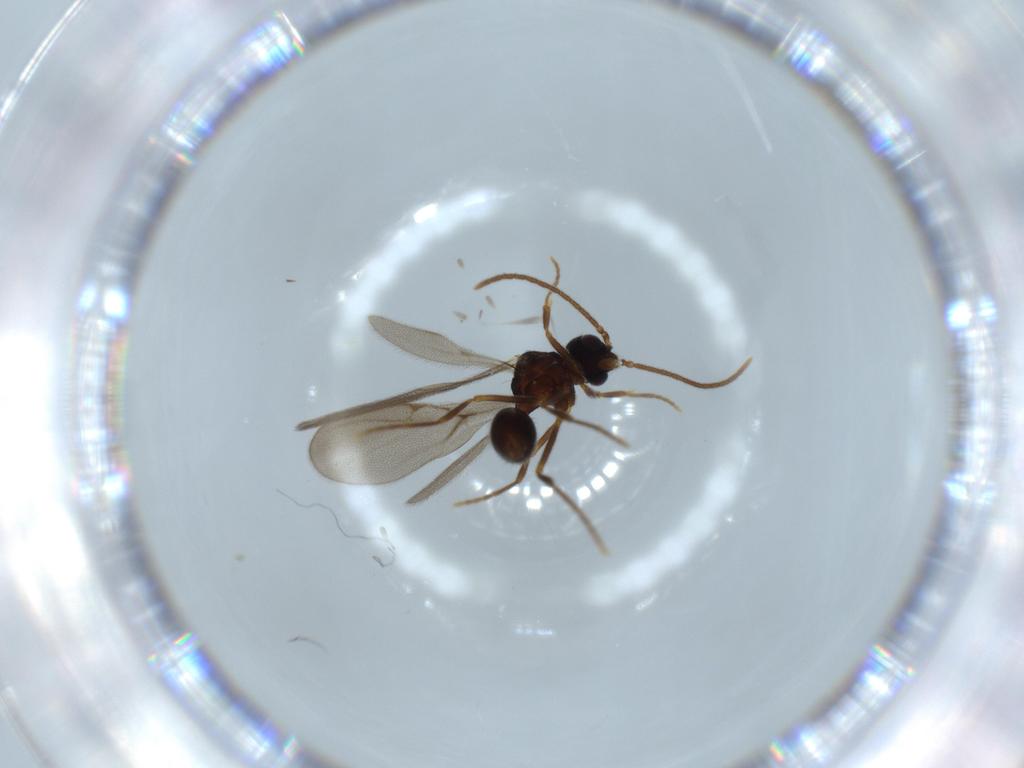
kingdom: Animalia
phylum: Arthropoda
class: Insecta
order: Hymenoptera
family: Formicidae
